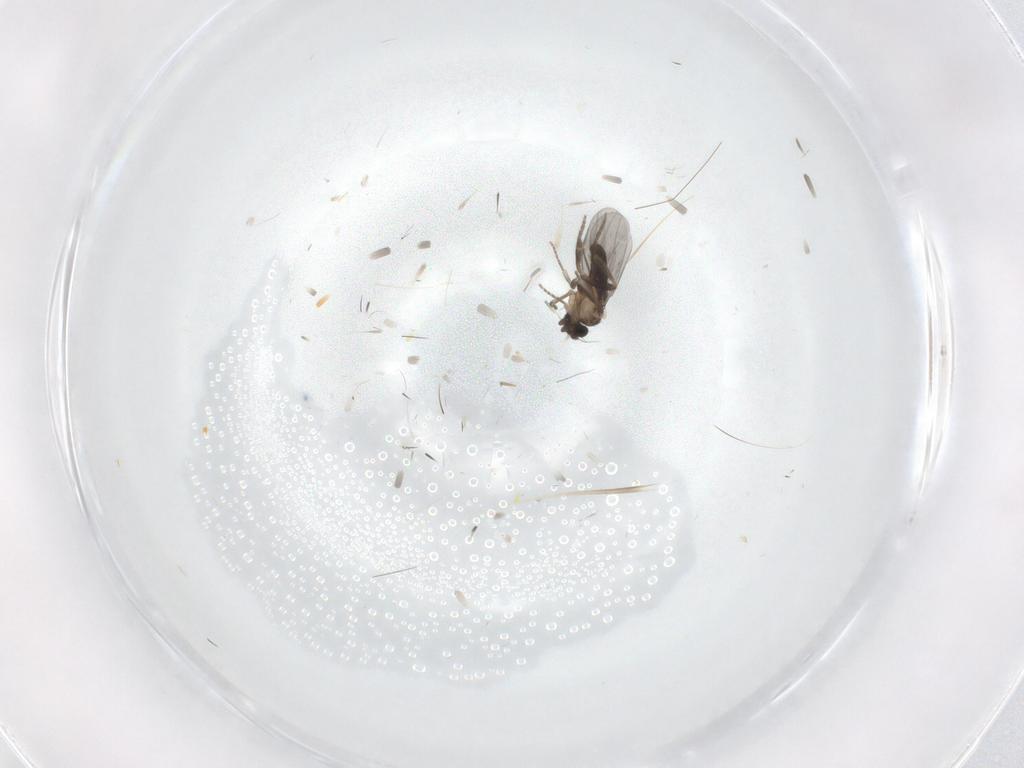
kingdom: Animalia
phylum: Arthropoda
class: Insecta
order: Diptera
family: Dolichopodidae
